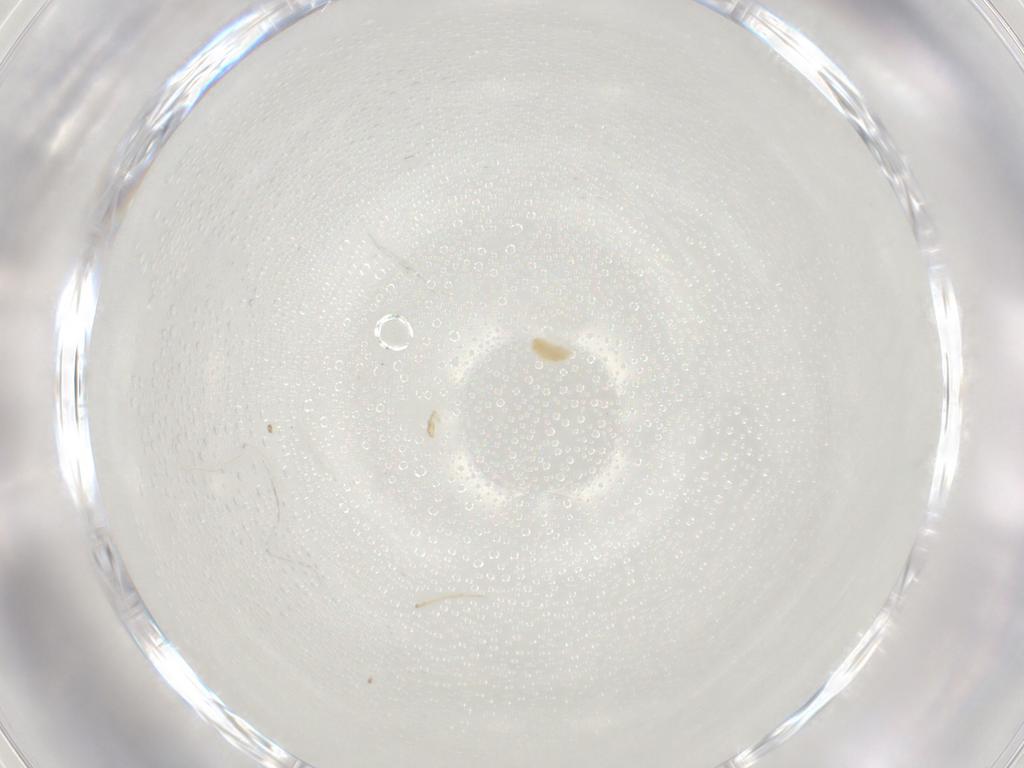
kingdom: Animalia
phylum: Arthropoda
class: Arachnida
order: Trombidiformes
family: Eupodidae
